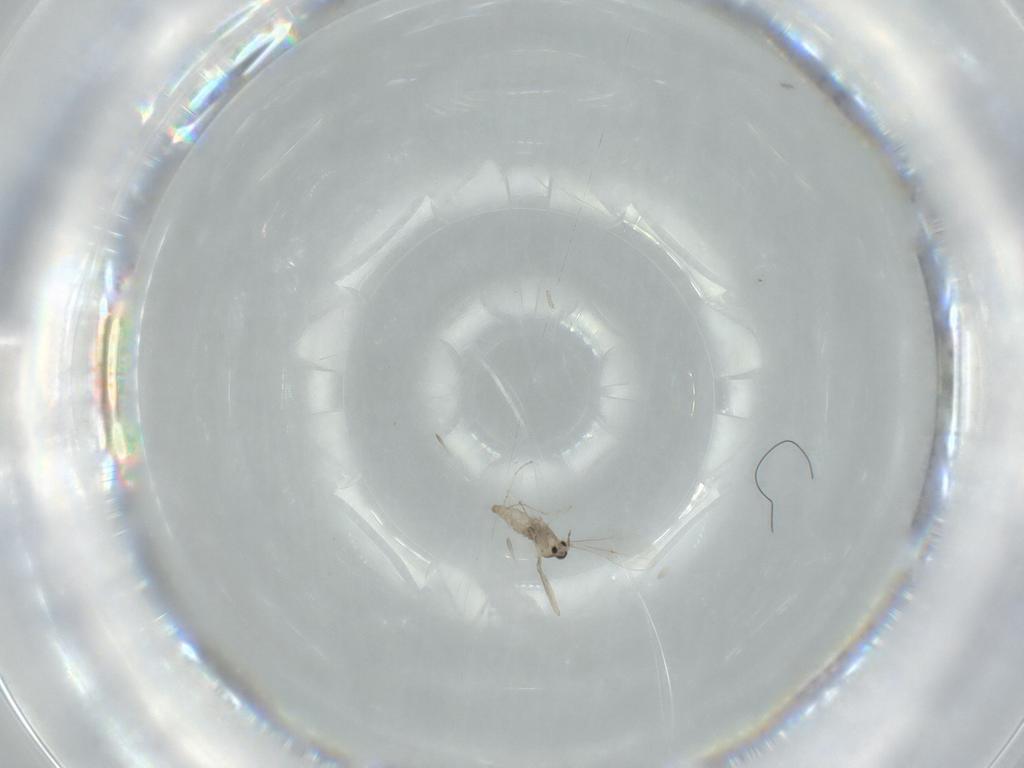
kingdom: Animalia
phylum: Arthropoda
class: Insecta
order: Diptera
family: Cecidomyiidae
